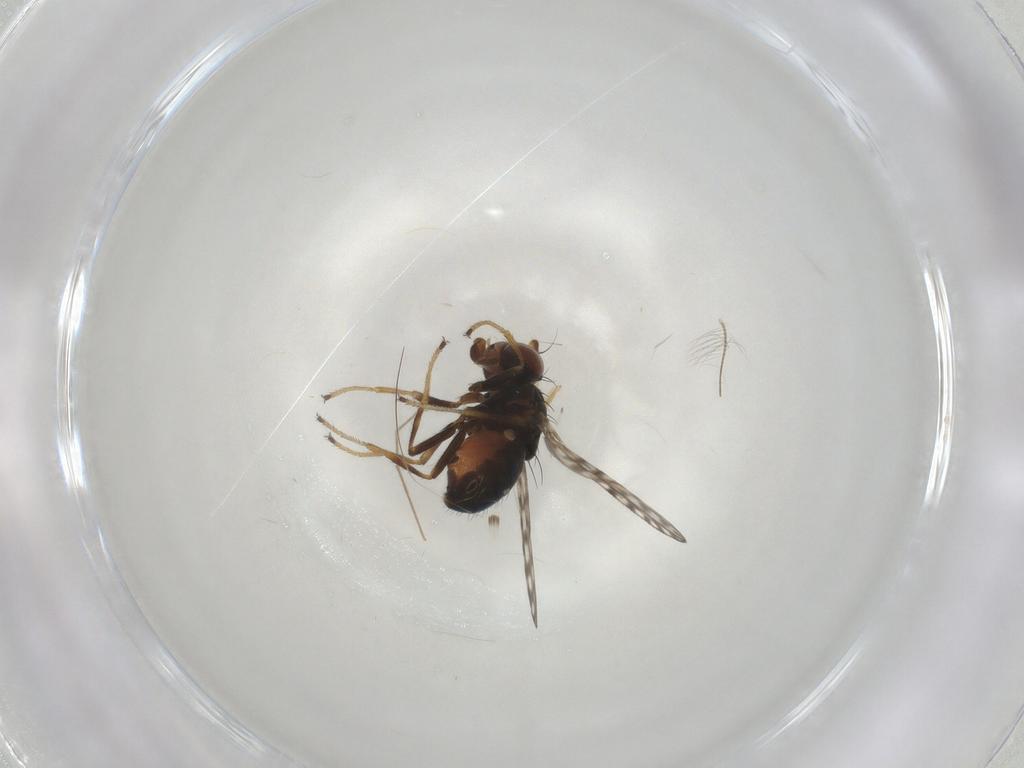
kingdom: Animalia
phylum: Arthropoda
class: Insecta
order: Diptera
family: Ephydridae
